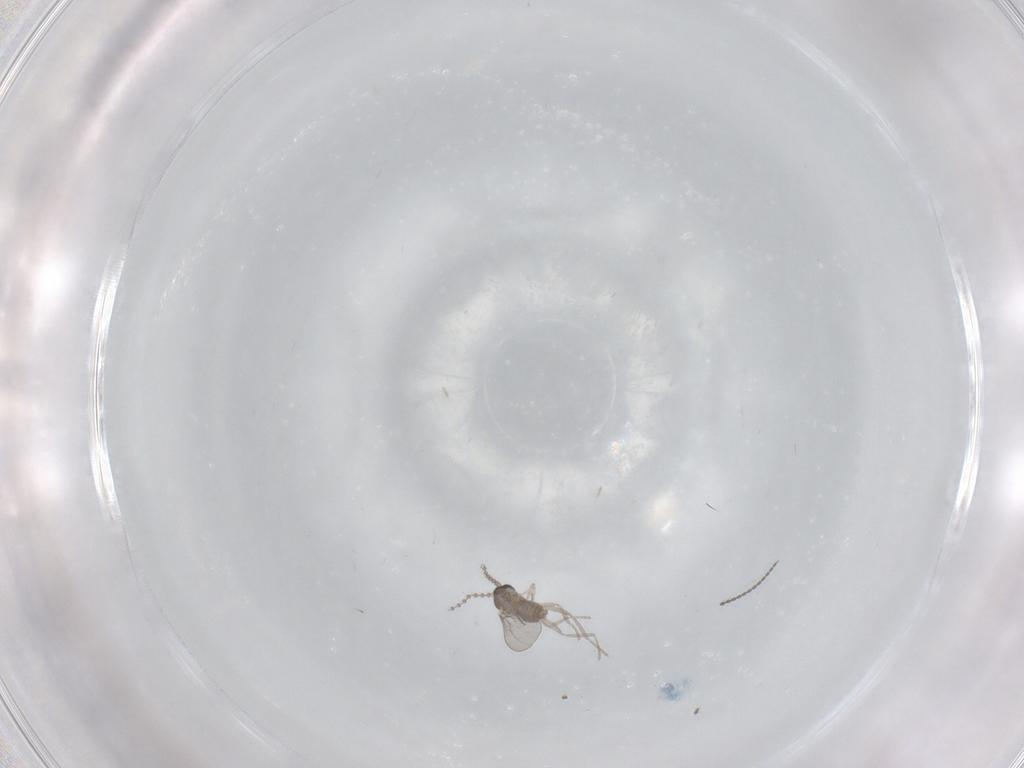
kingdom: Animalia
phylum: Arthropoda
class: Insecta
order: Diptera
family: Cecidomyiidae
